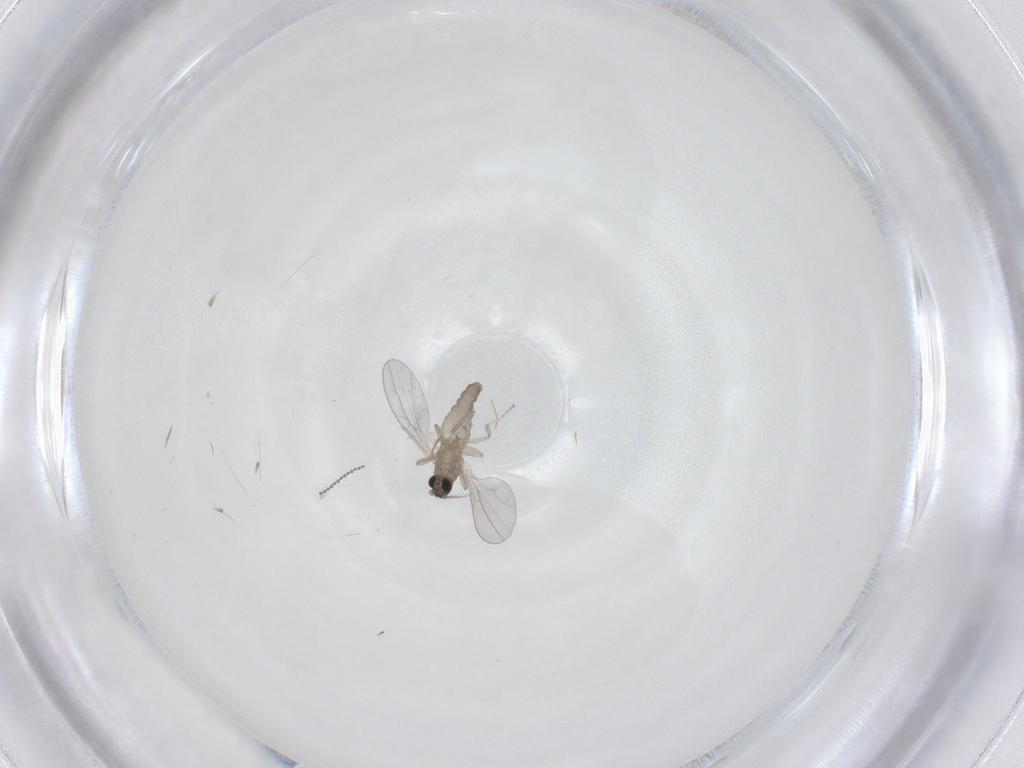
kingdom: Animalia
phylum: Arthropoda
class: Insecta
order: Diptera
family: Cecidomyiidae
